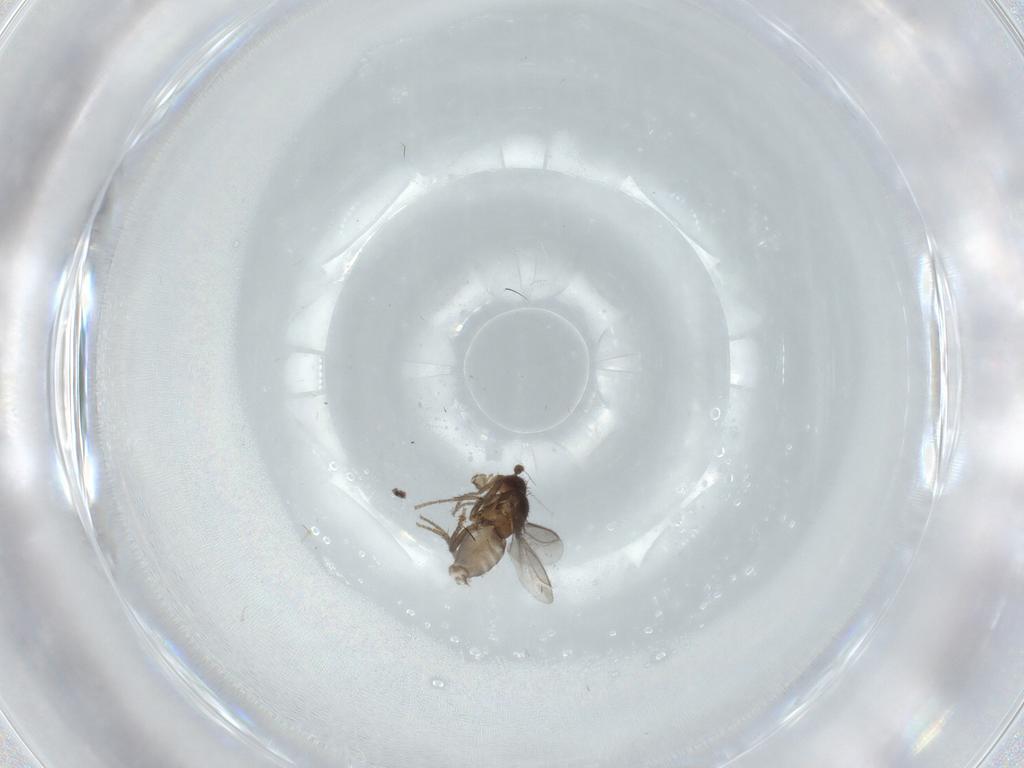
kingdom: Animalia
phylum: Arthropoda
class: Insecta
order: Diptera
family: Sphaeroceridae
